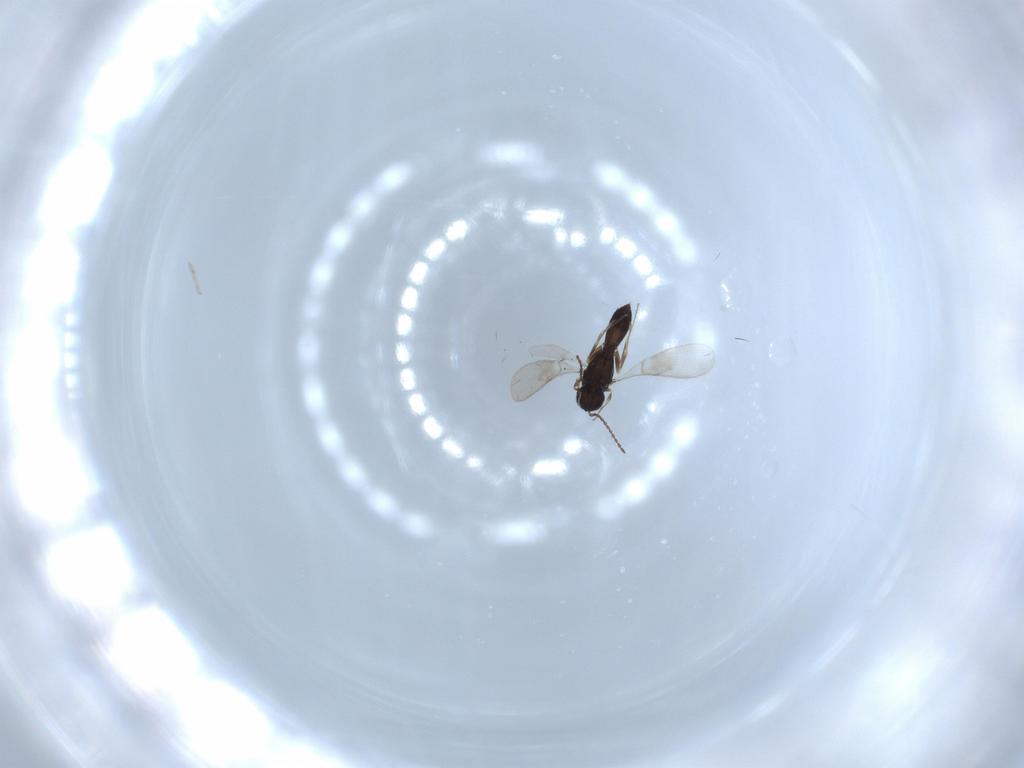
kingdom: Animalia
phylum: Arthropoda
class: Insecta
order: Hymenoptera
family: Scelionidae
